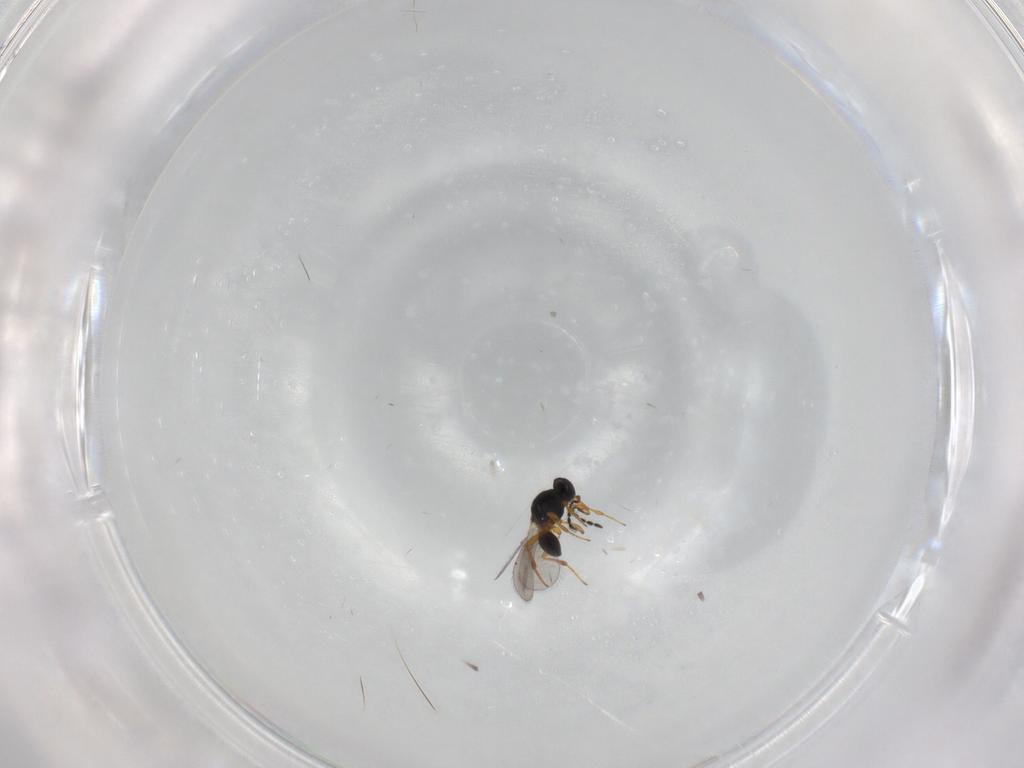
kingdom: Animalia
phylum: Arthropoda
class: Insecta
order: Hymenoptera
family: Platygastridae
